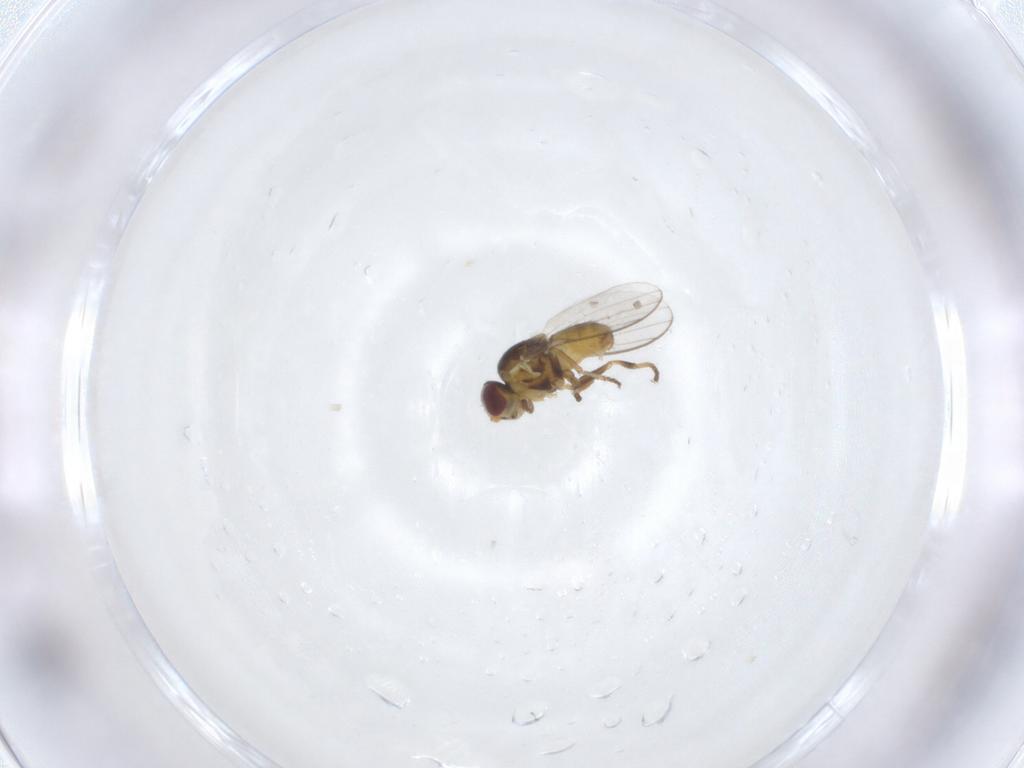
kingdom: Animalia
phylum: Arthropoda
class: Insecta
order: Diptera
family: Chloropidae
